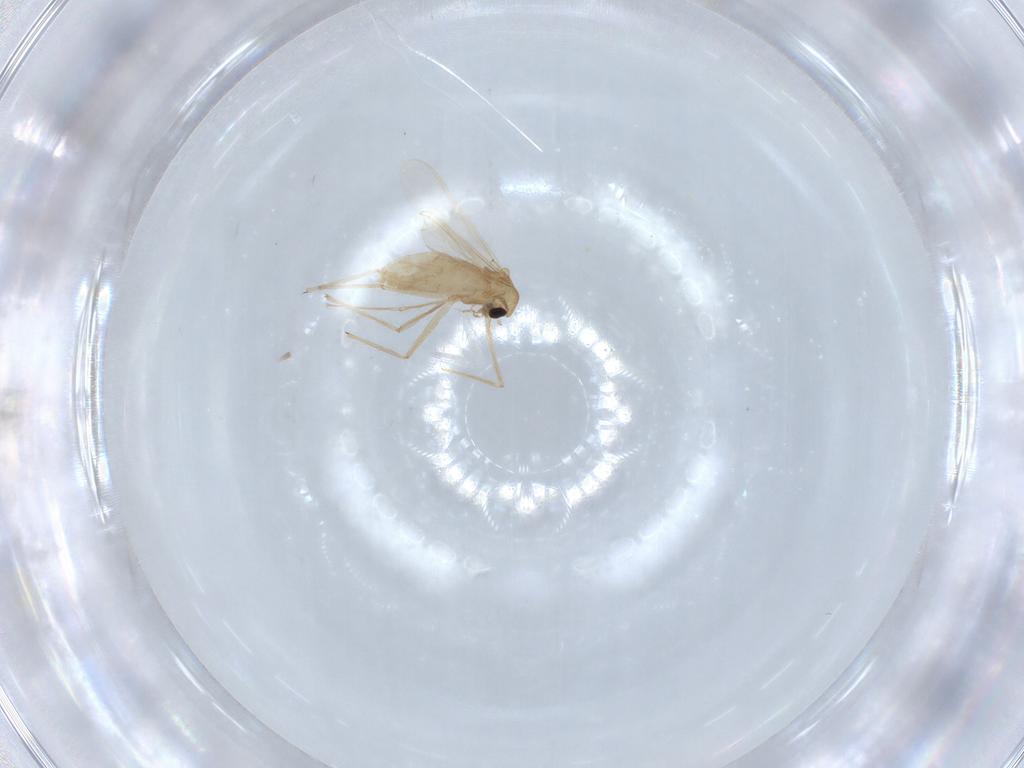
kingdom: Animalia
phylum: Arthropoda
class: Insecta
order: Diptera
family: Chironomidae
